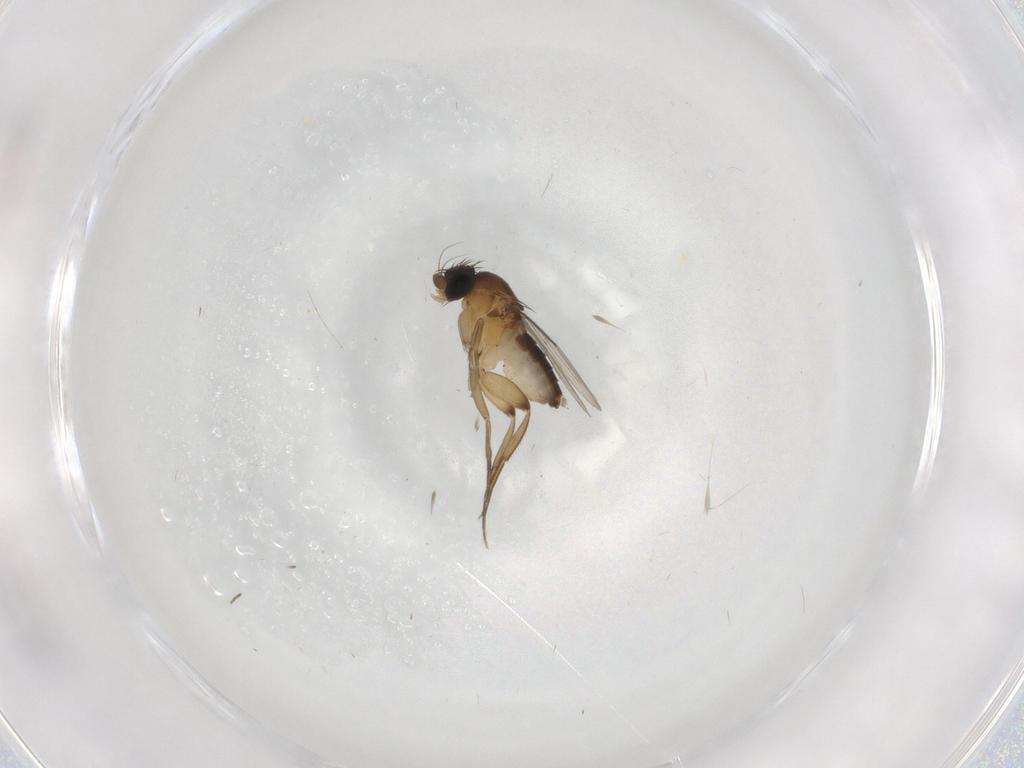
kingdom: Animalia
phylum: Arthropoda
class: Insecta
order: Diptera
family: Phoridae
